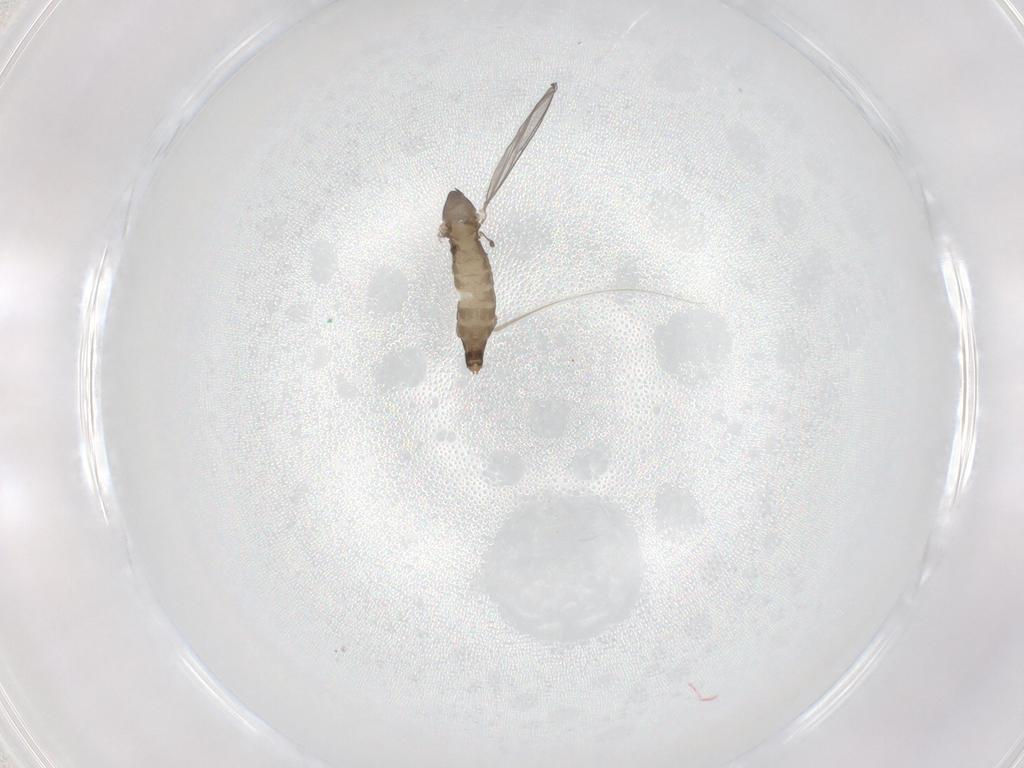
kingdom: Animalia
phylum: Arthropoda
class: Insecta
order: Diptera
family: Chironomidae
